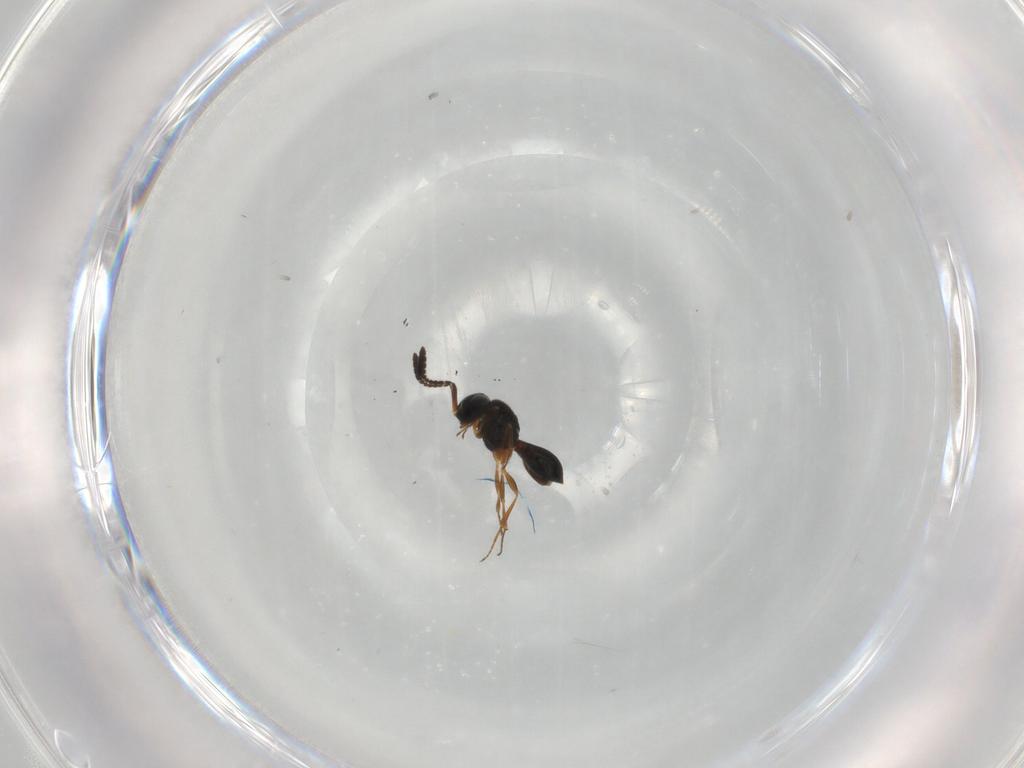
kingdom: Animalia
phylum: Arthropoda
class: Insecta
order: Hymenoptera
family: Scelionidae
